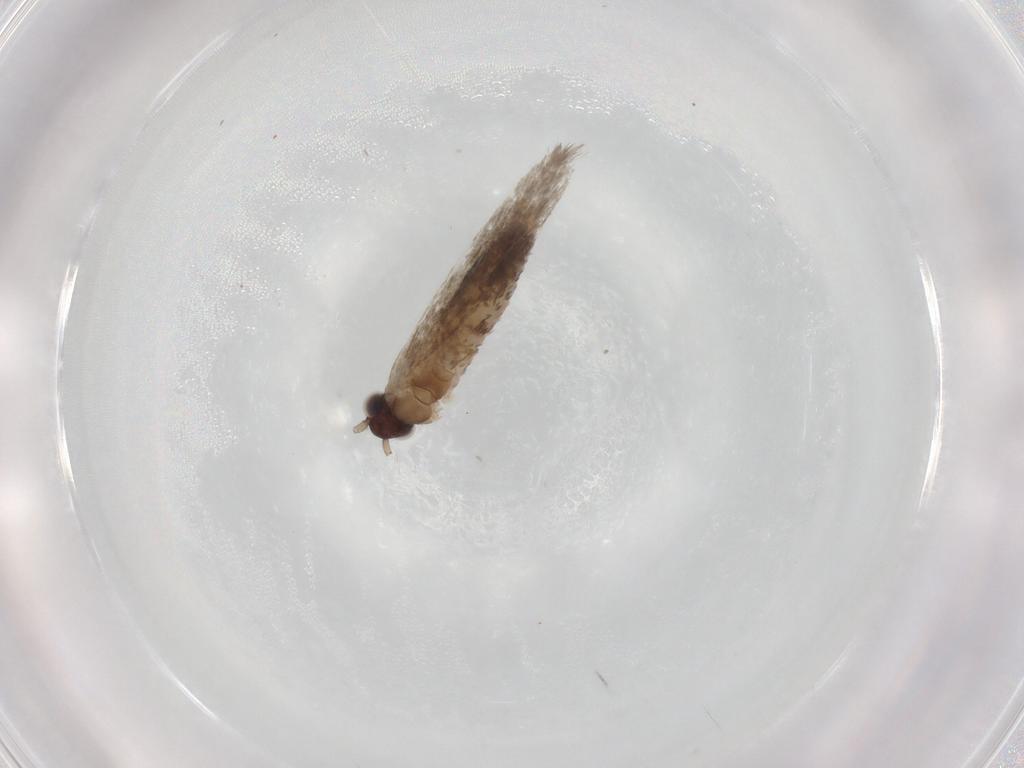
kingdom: Animalia
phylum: Arthropoda
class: Insecta
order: Lepidoptera
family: Tineidae
